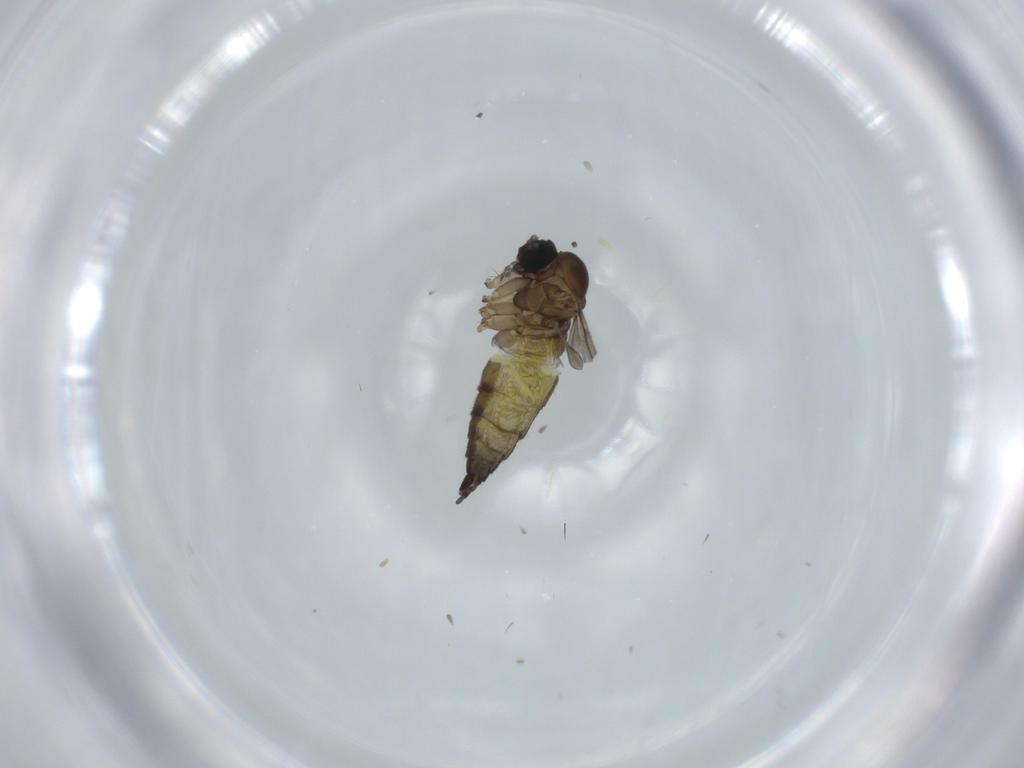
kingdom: Animalia
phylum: Arthropoda
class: Insecta
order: Diptera
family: Sciaridae
